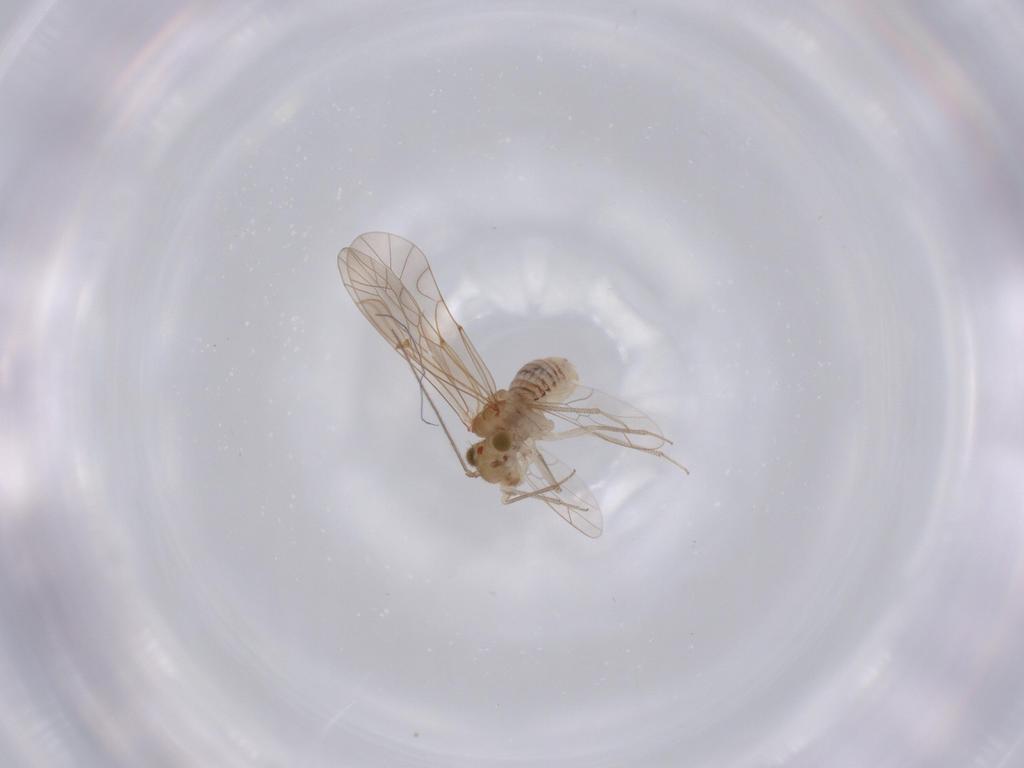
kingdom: Animalia
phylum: Arthropoda
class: Insecta
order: Psocodea
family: Lachesillidae
